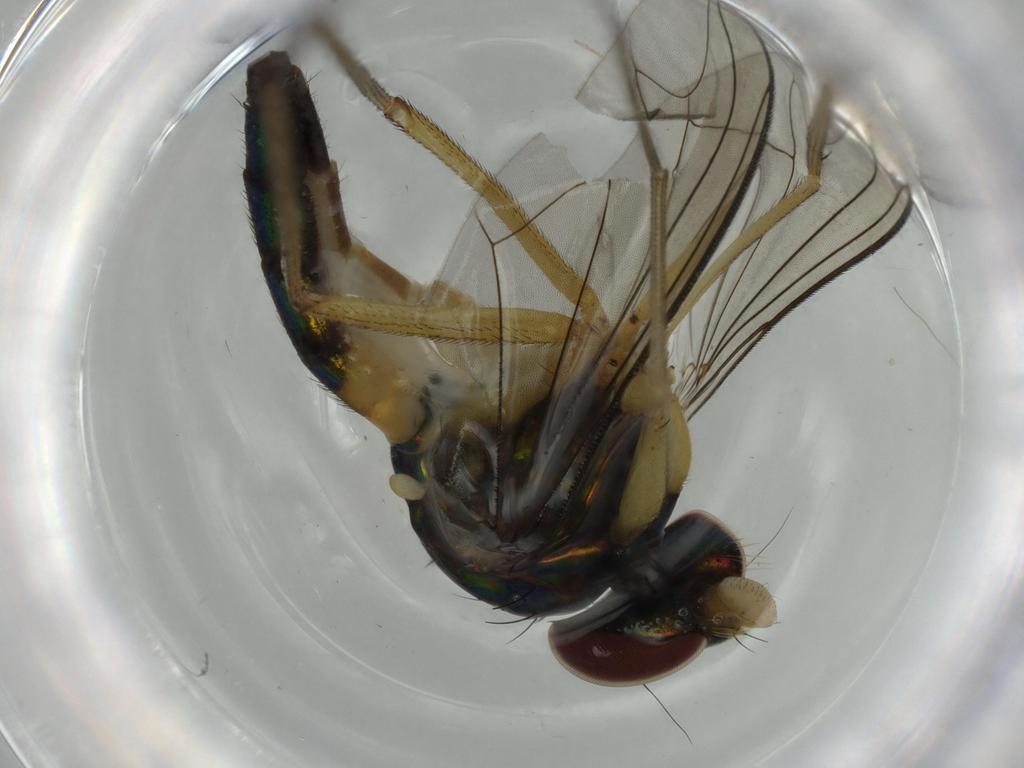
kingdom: Animalia
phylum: Arthropoda
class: Insecta
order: Diptera
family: Dolichopodidae
